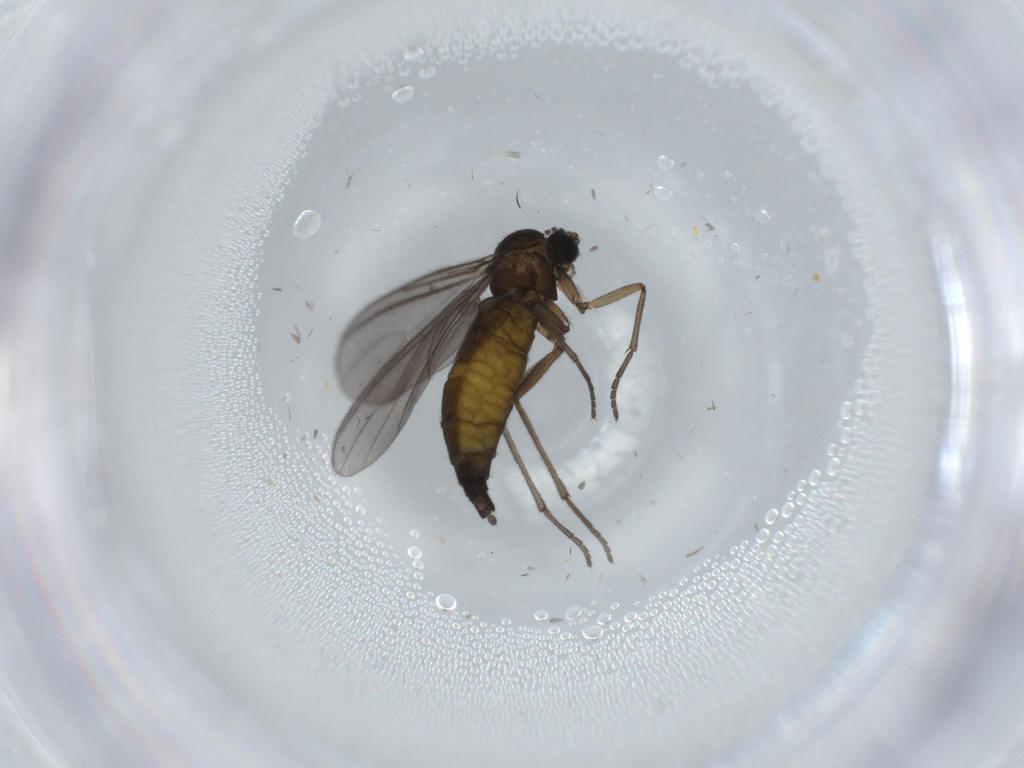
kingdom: Animalia
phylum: Arthropoda
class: Insecta
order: Diptera
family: Sciaridae
